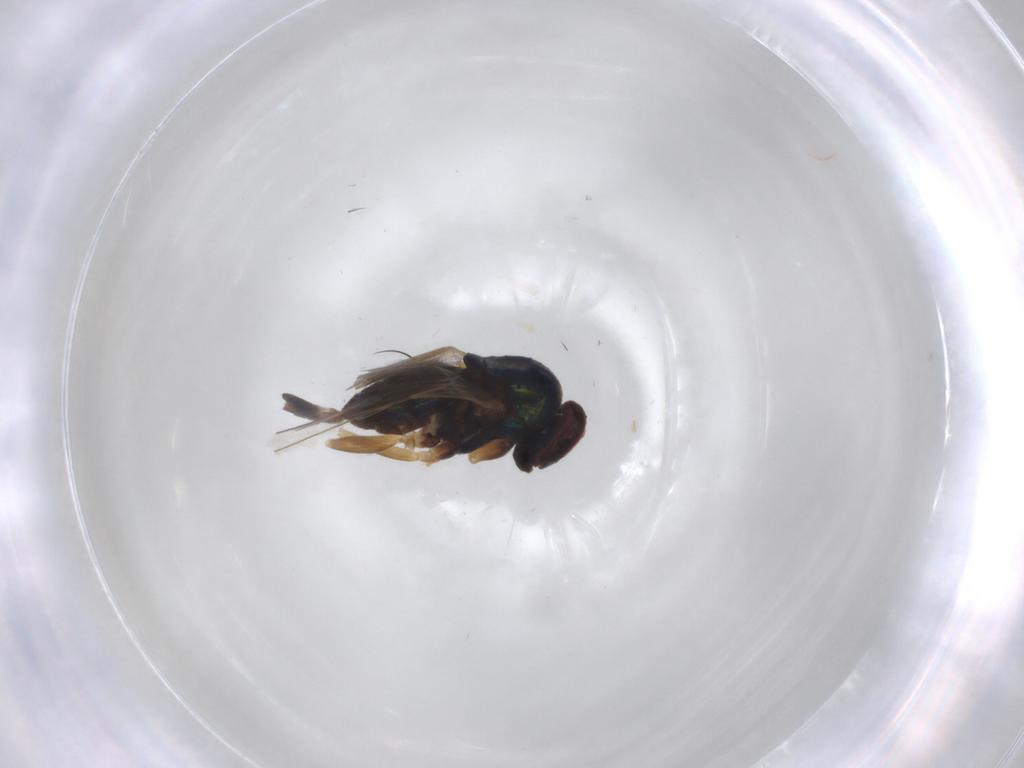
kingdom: Animalia
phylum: Arthropoda
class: Insecta
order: Diptera
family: Dolichopodidae
